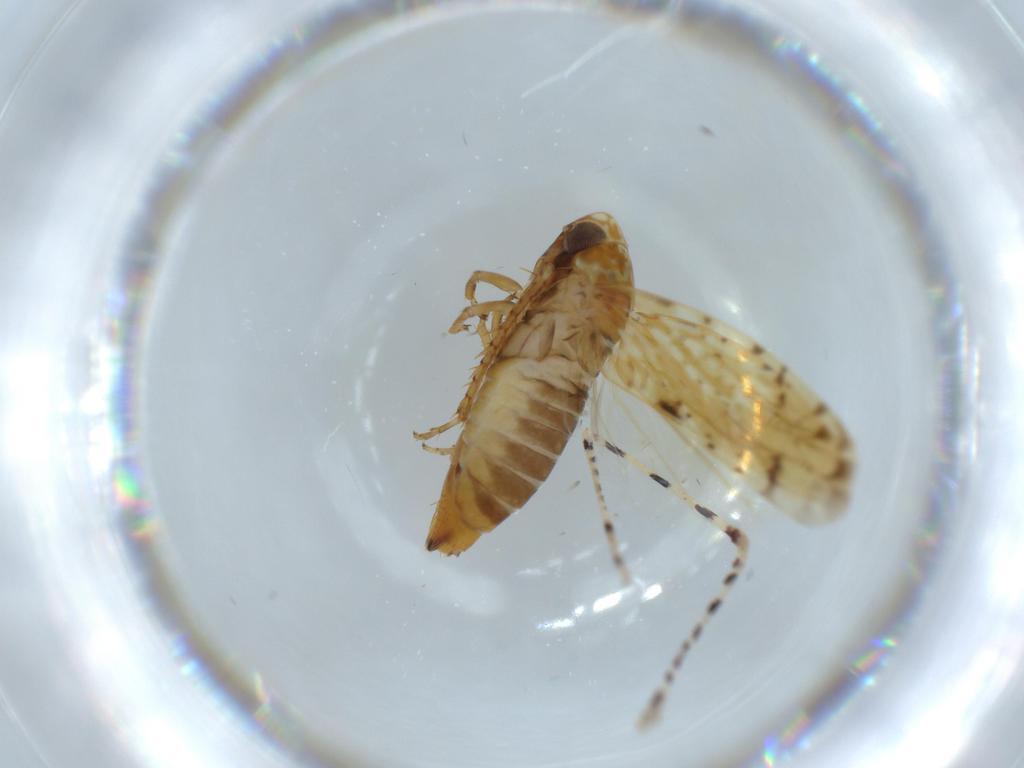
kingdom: Animalia
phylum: Arthropoda
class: Insecta
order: Hemiptera
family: Cicadellidae
